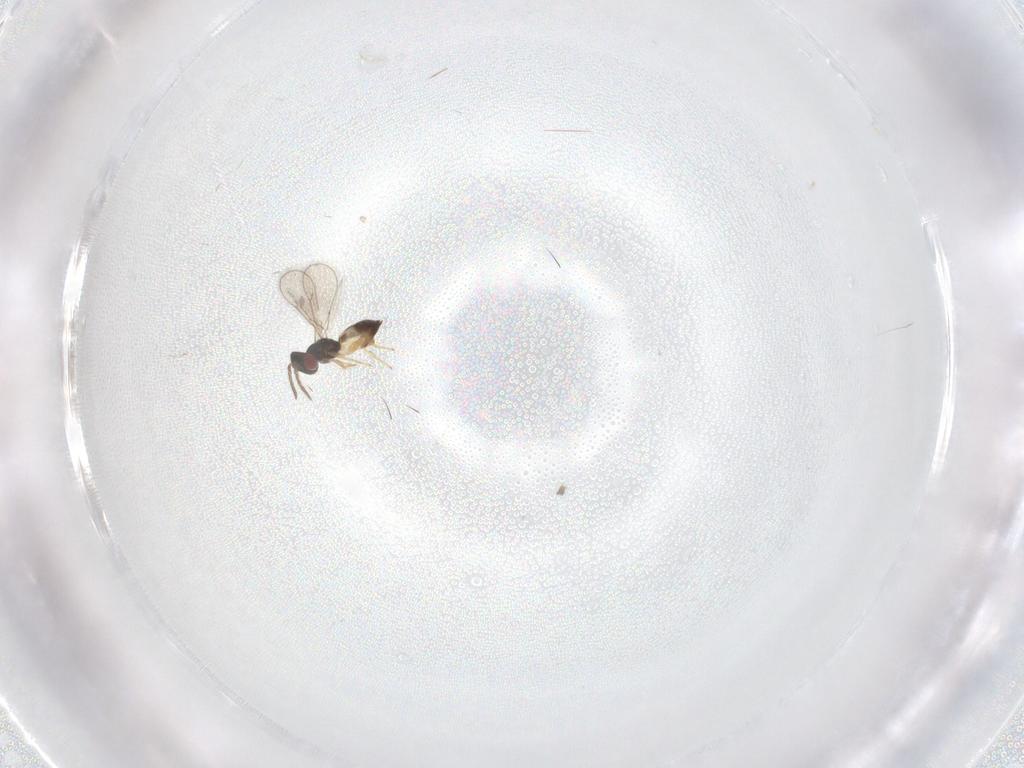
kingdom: Animalia
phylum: Arthropoda
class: Insecta
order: Hymenoptera
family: Eulophidae
